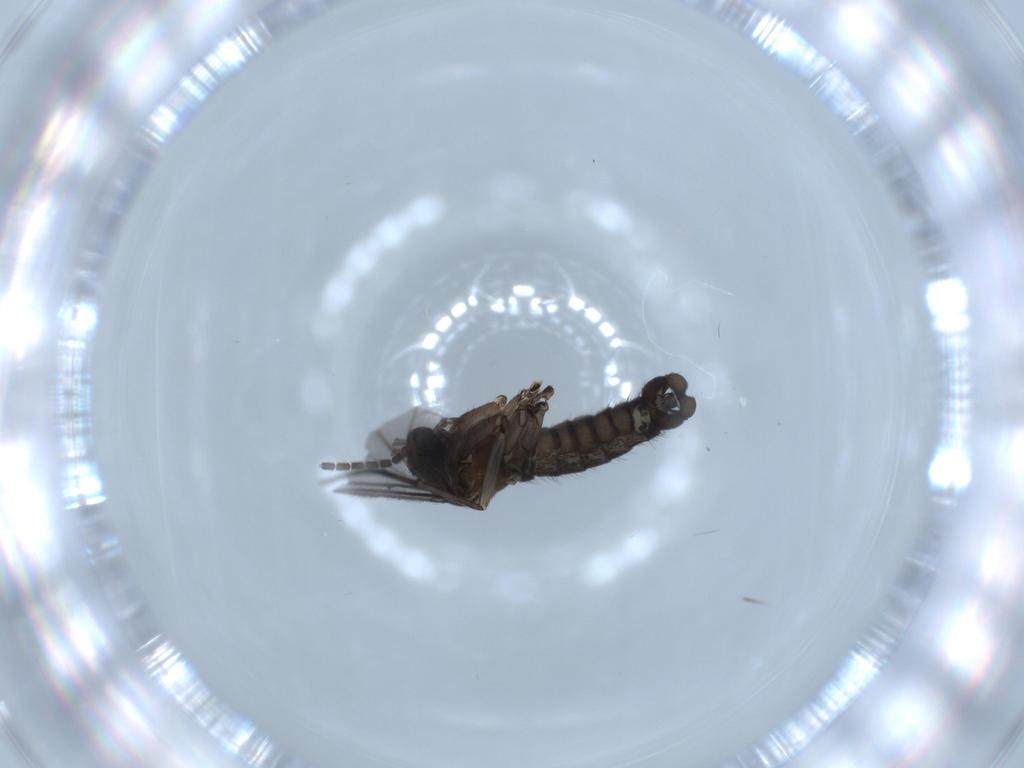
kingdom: Animalia
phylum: Arthropoda
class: Insecta
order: Diptera
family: Sciaridae
